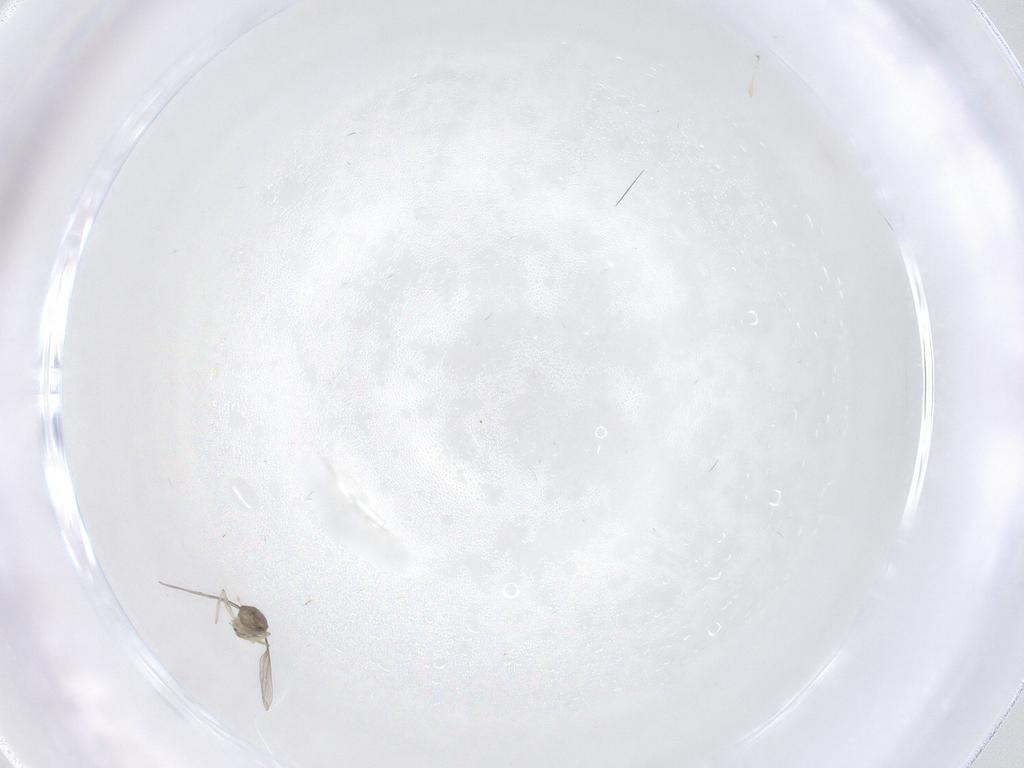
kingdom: Animalia
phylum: Arthropoda
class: Insecta
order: Diptera
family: Cecidomyiidae
